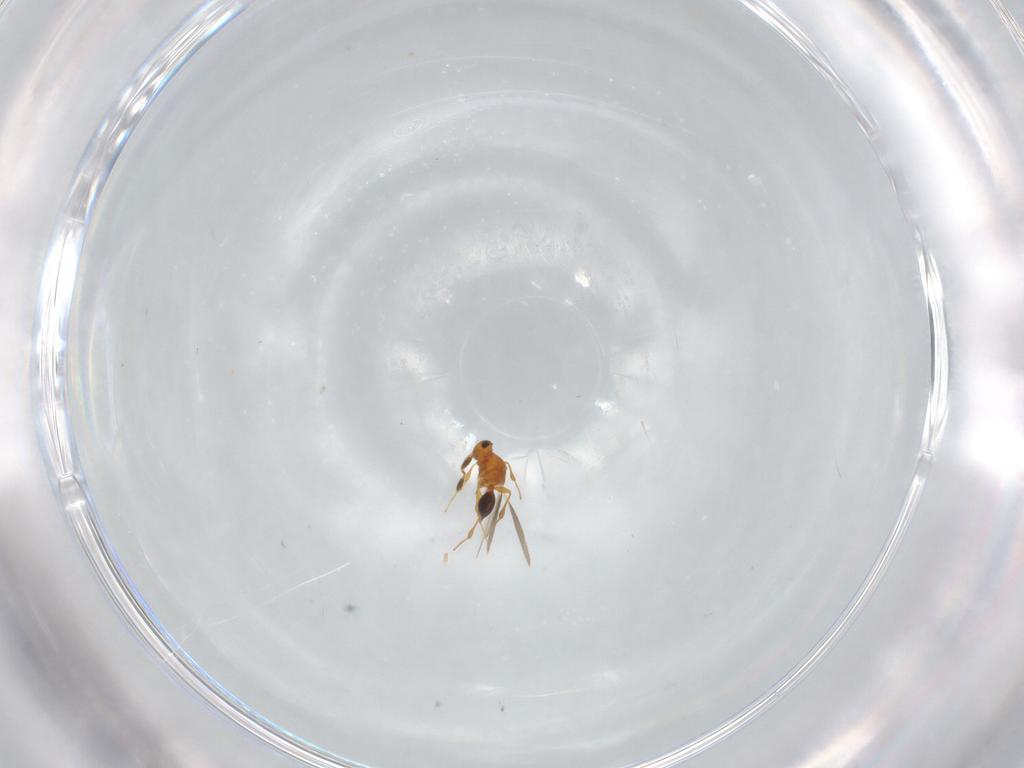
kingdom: Animalia
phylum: Arthropoda
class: Insecta
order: Hymenoptera
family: Platygastridae
